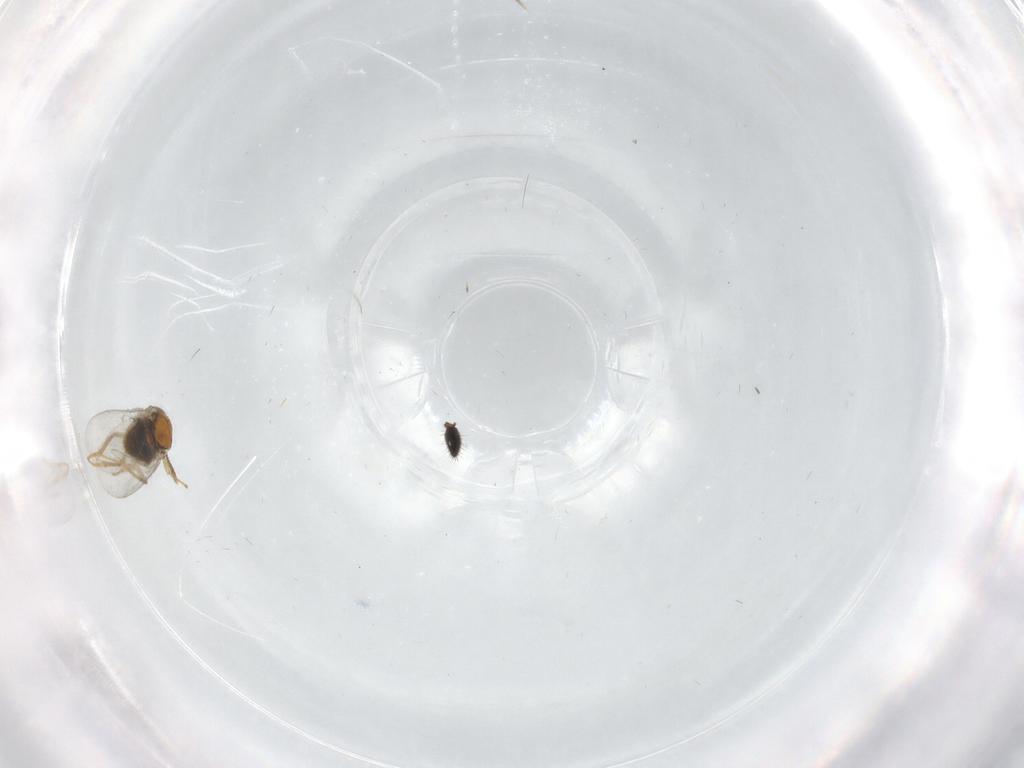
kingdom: Animalia
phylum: Arthropoda
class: Insecta
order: Hymenoptera
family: Encyrtidae
